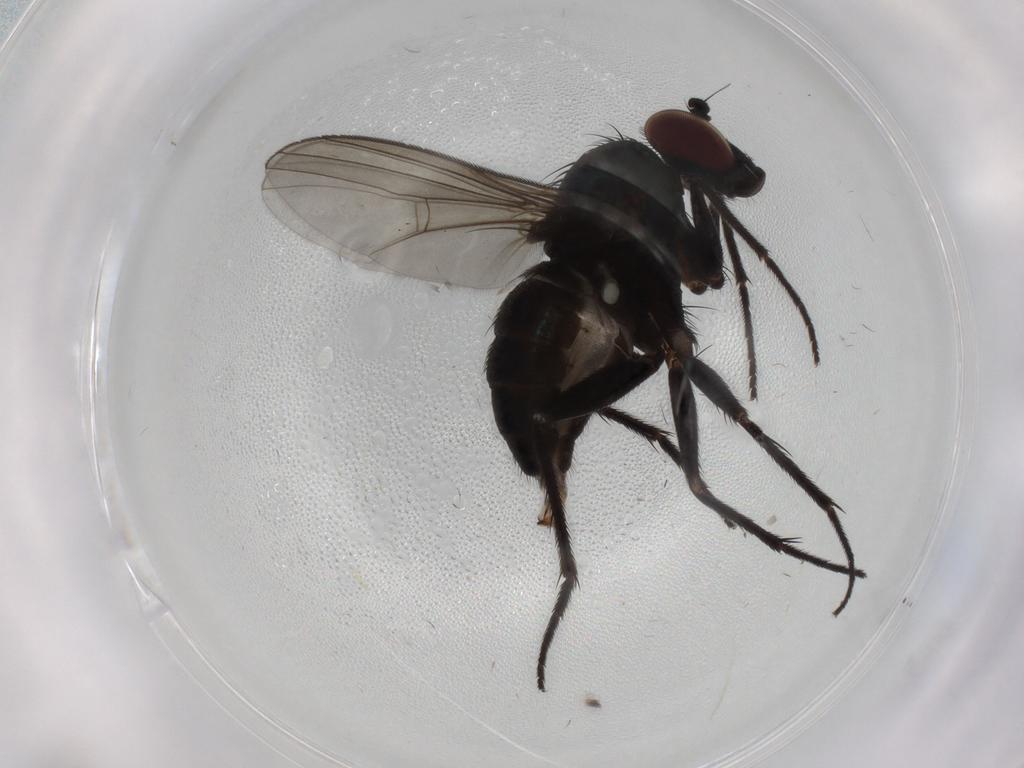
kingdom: Animalia
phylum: Arthropoda
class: Insecta
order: Diptera
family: Dolichopodidae
